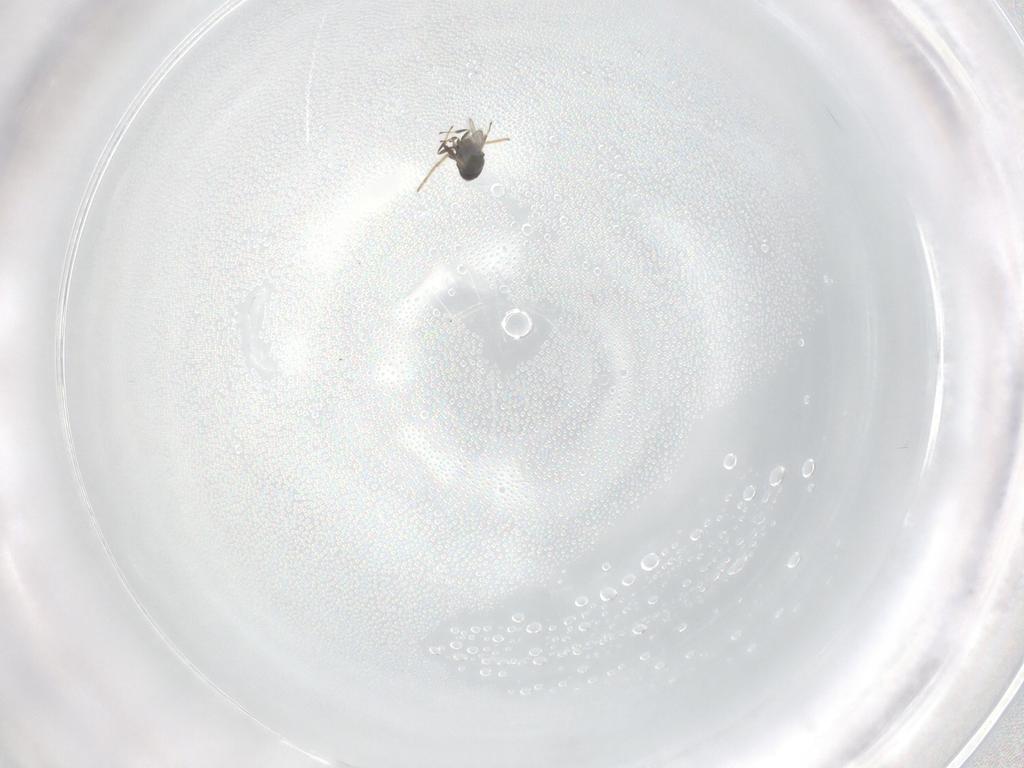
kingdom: Animalia
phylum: Arthropoda
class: Insecta
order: Diptera
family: Chironomidae
